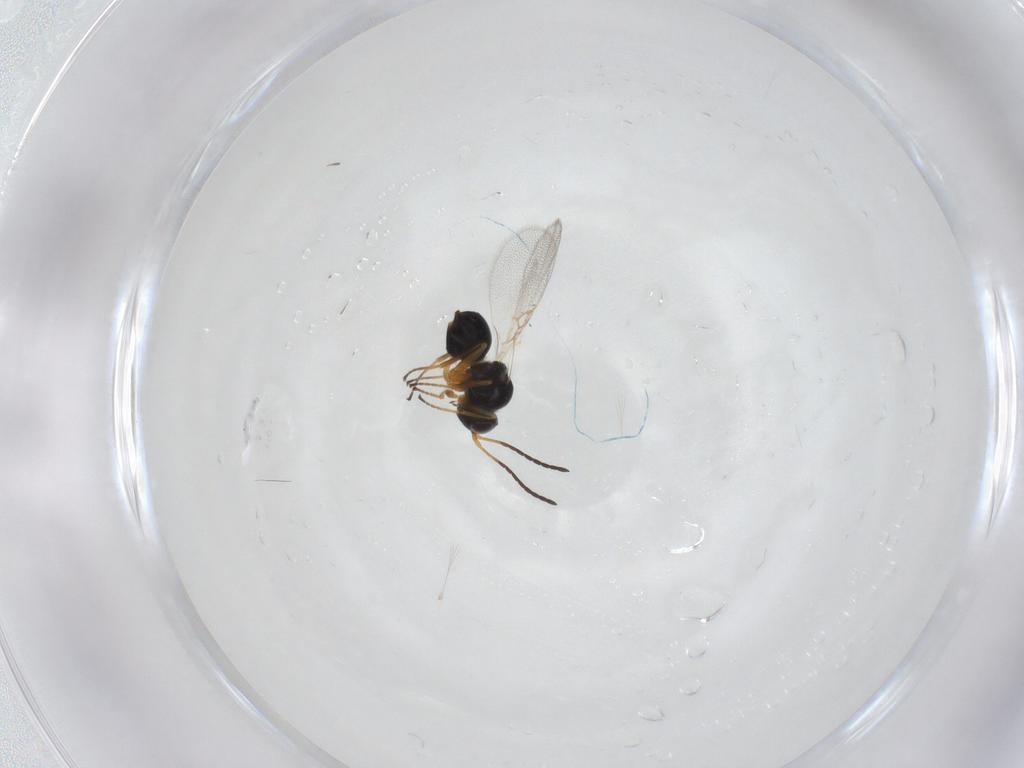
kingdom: Animalia
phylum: Arthropoda
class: Insecta
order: Hymenoptera
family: Figitidae
